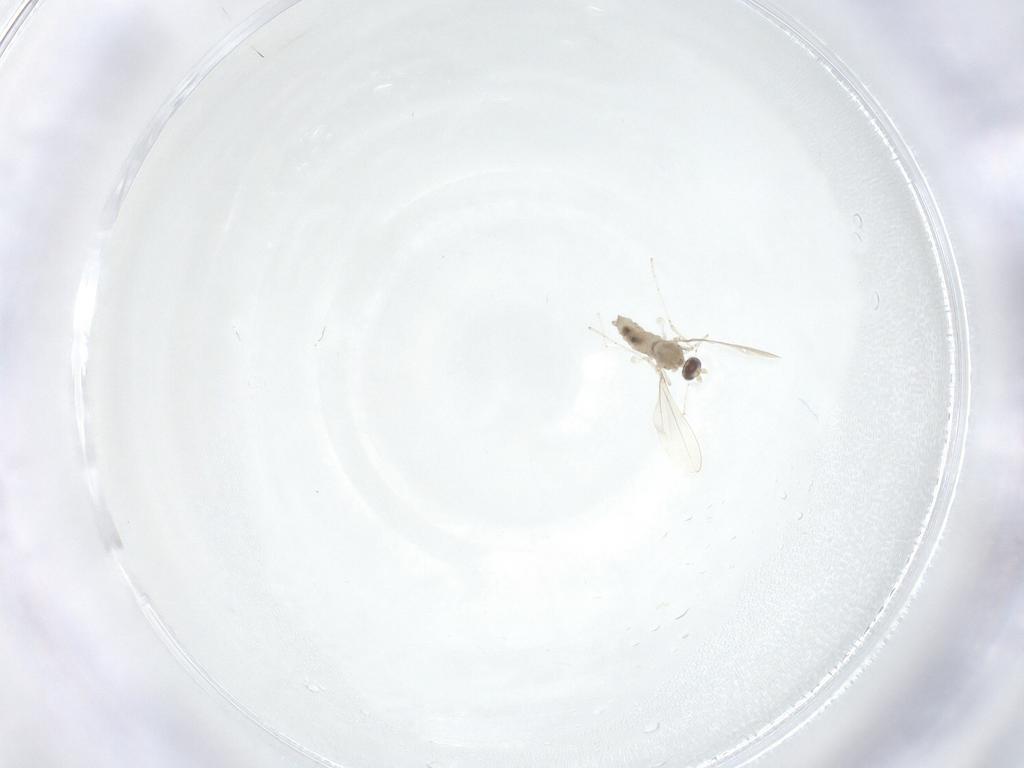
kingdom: Animalia
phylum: Arthropoda
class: Insecta
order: Diptera
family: Cecidomyiidae
